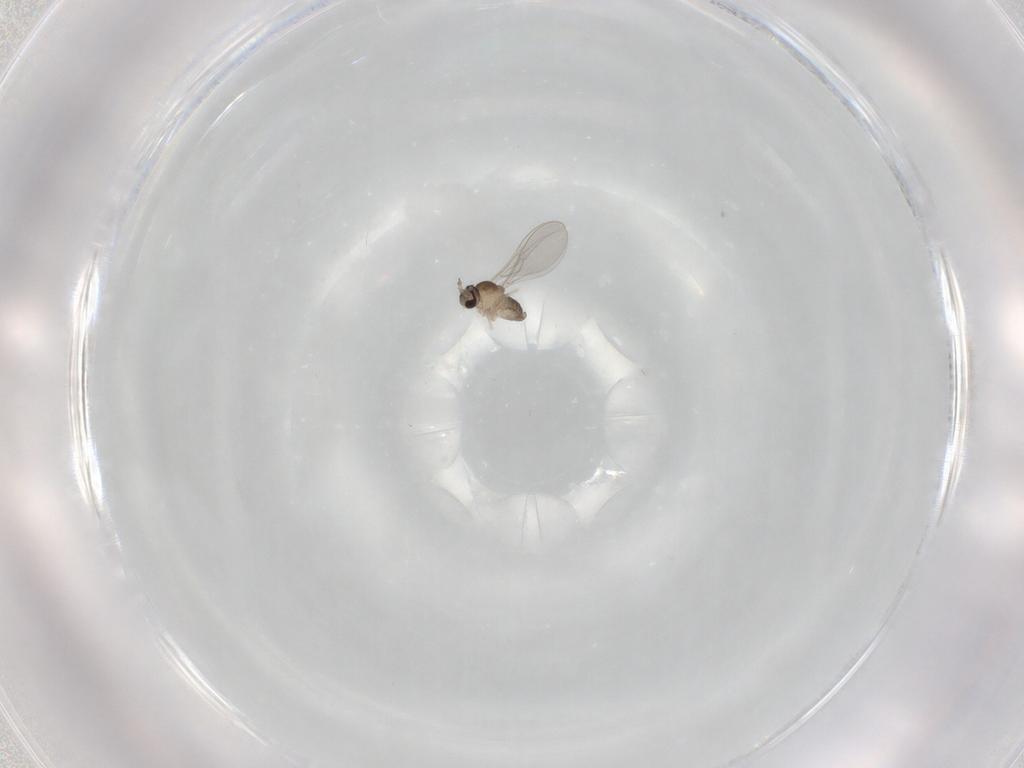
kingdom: Animalia
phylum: Arthropoda
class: Insecta
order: Diptera
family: Cecidomyiidae
